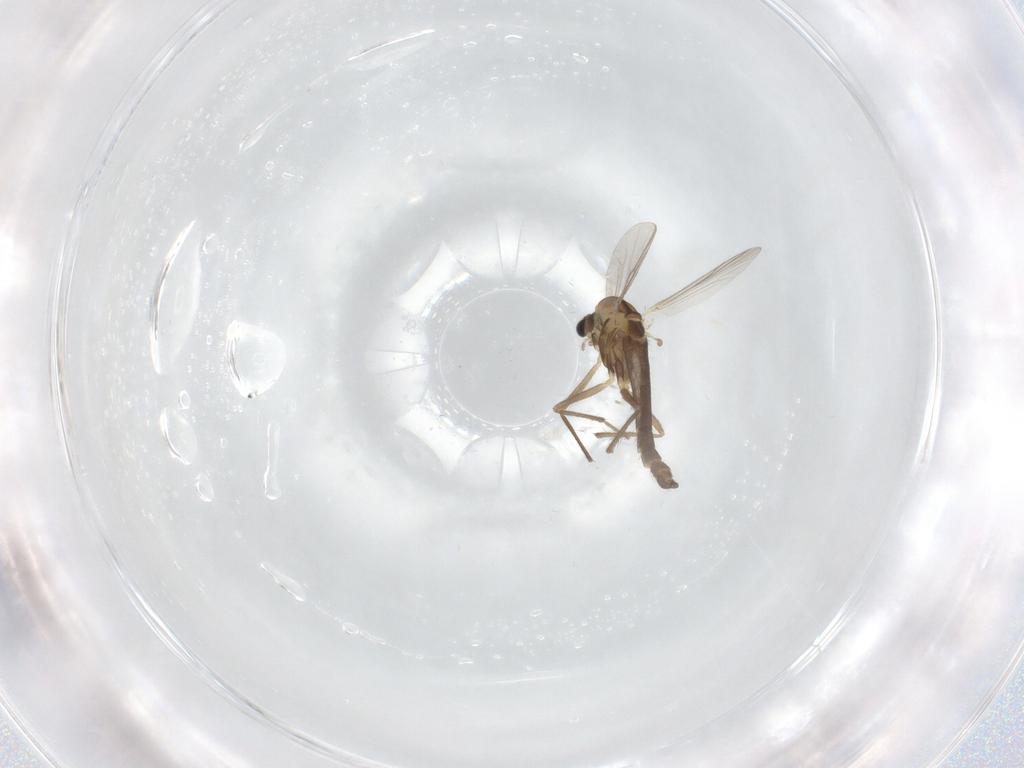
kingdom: Animalia
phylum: Arthropoda
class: Insecta
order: Diptera
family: Chironomidae
